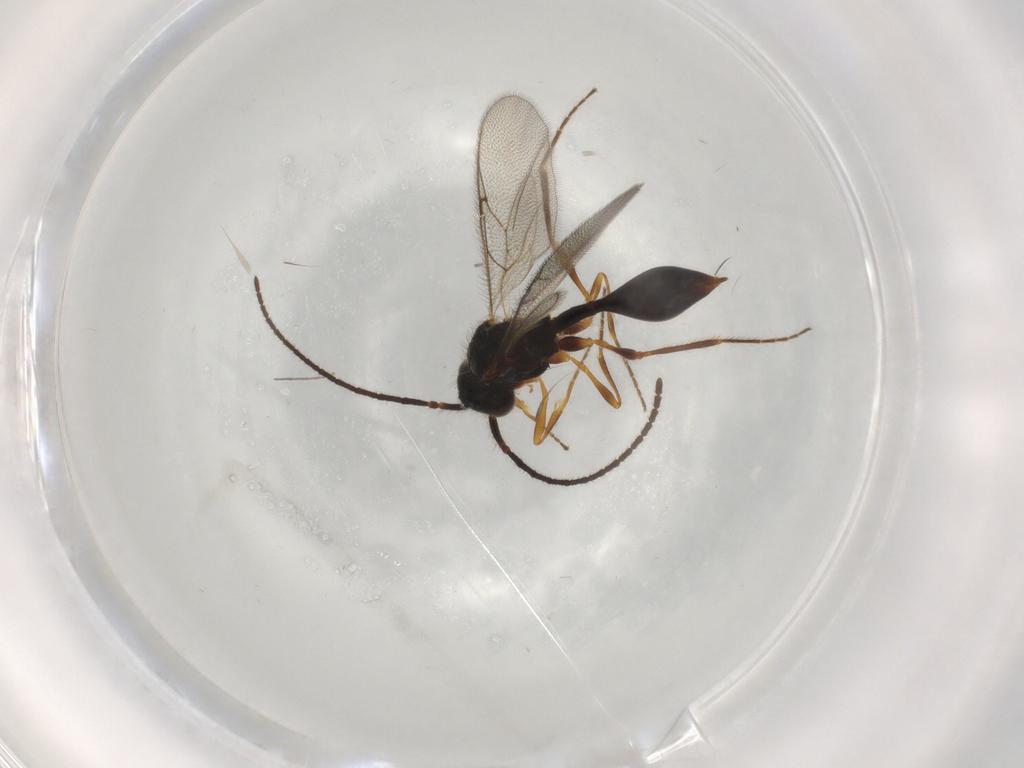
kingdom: Animalia
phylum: Arthropoda
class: Insecta
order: Hymenoptera
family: Diapriidae
